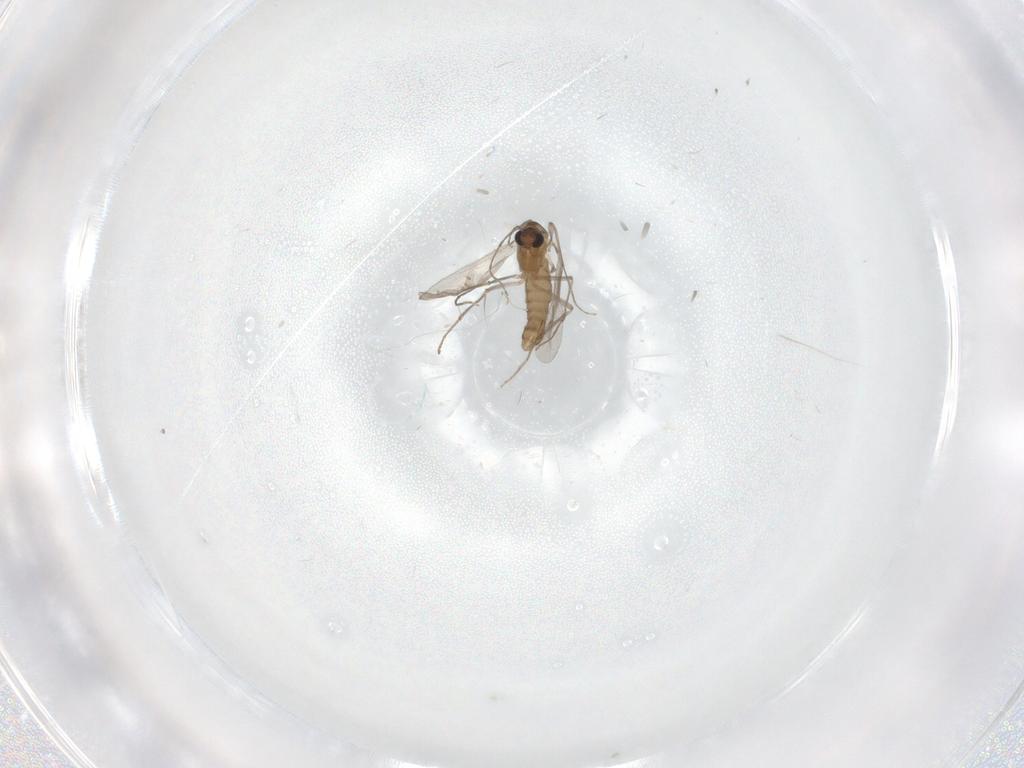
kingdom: Animalia
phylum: Arthropoda
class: Insecta
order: Diptera
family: Chironomidae
